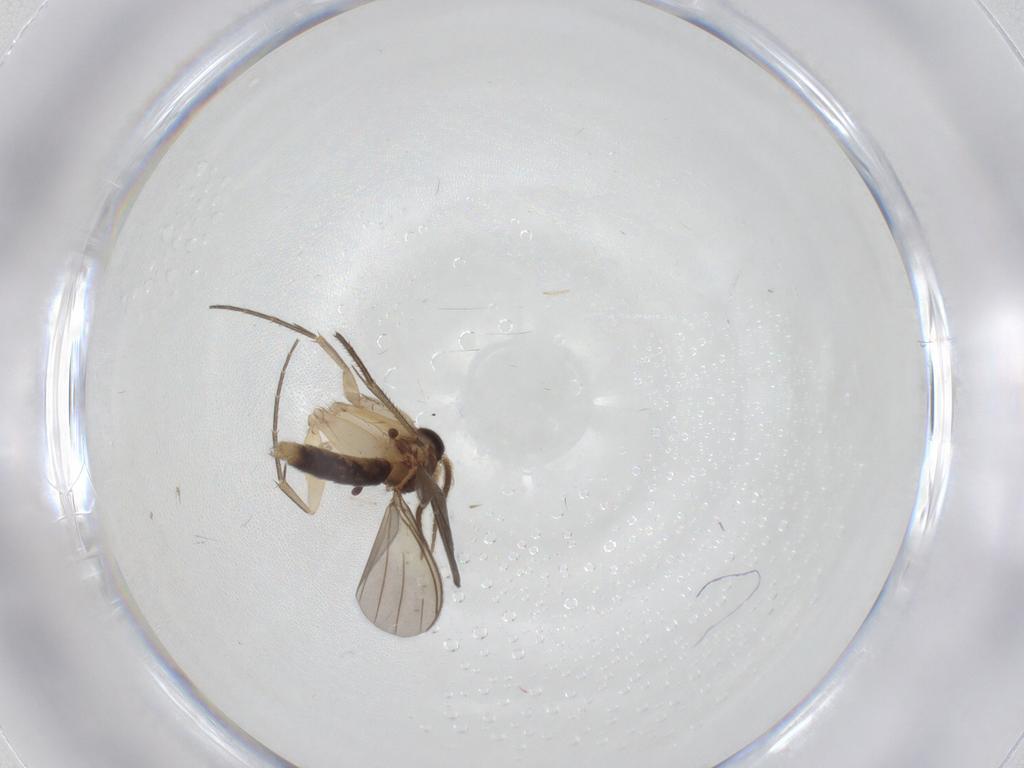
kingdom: Animalia
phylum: Arthropoda
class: Insecta
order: Diptera
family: Mycetophilidae
